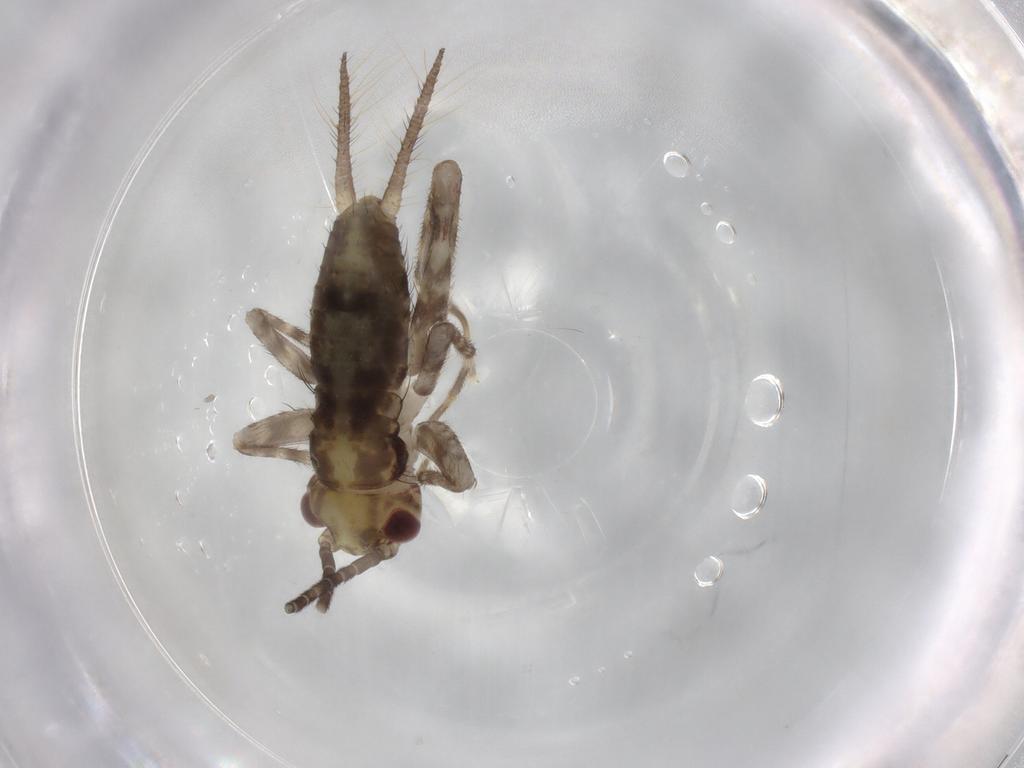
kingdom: Animalia
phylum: Arthropoda
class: Insecta
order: Orthoptera
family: Gryllidae
